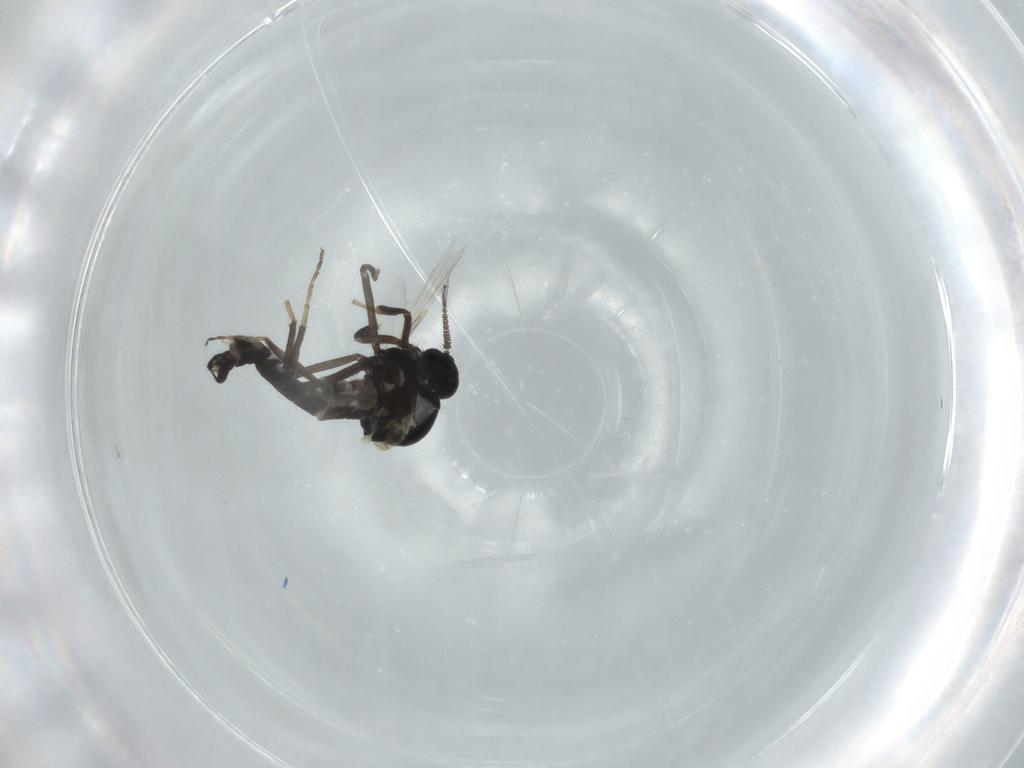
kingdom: Animalia
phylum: Arthropoda
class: Insecta
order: Diptera
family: Ceratopogonidae
